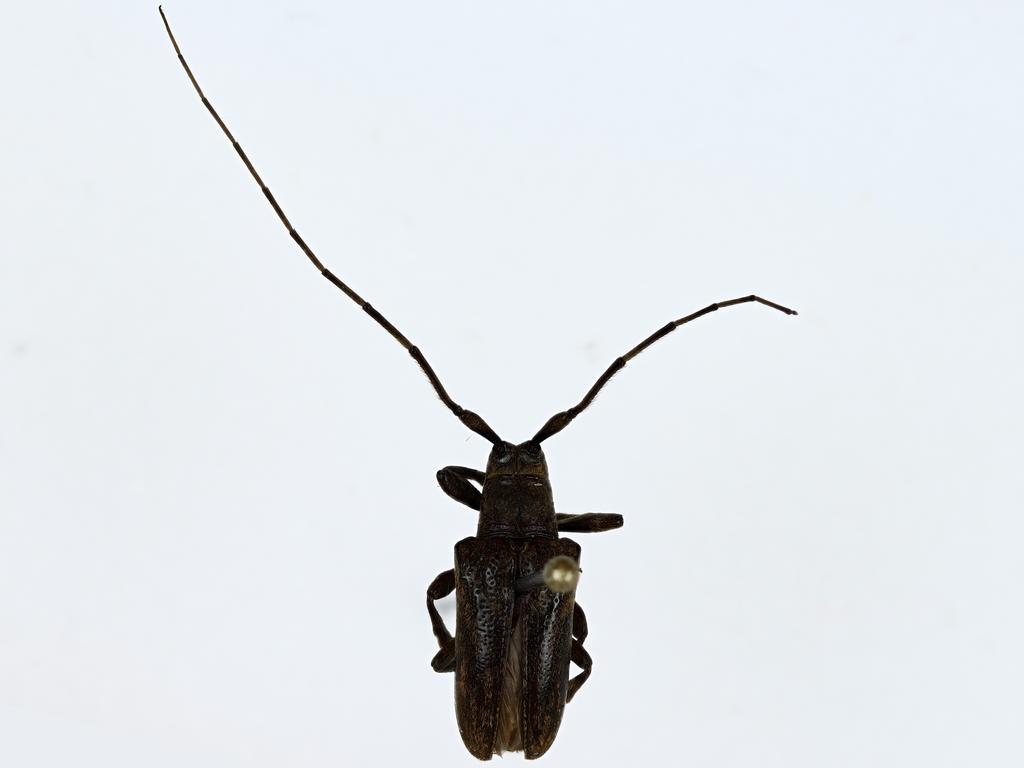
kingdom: Animalia
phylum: Arthropoda
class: Insecta
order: Coleoptera
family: Cerambycidae
